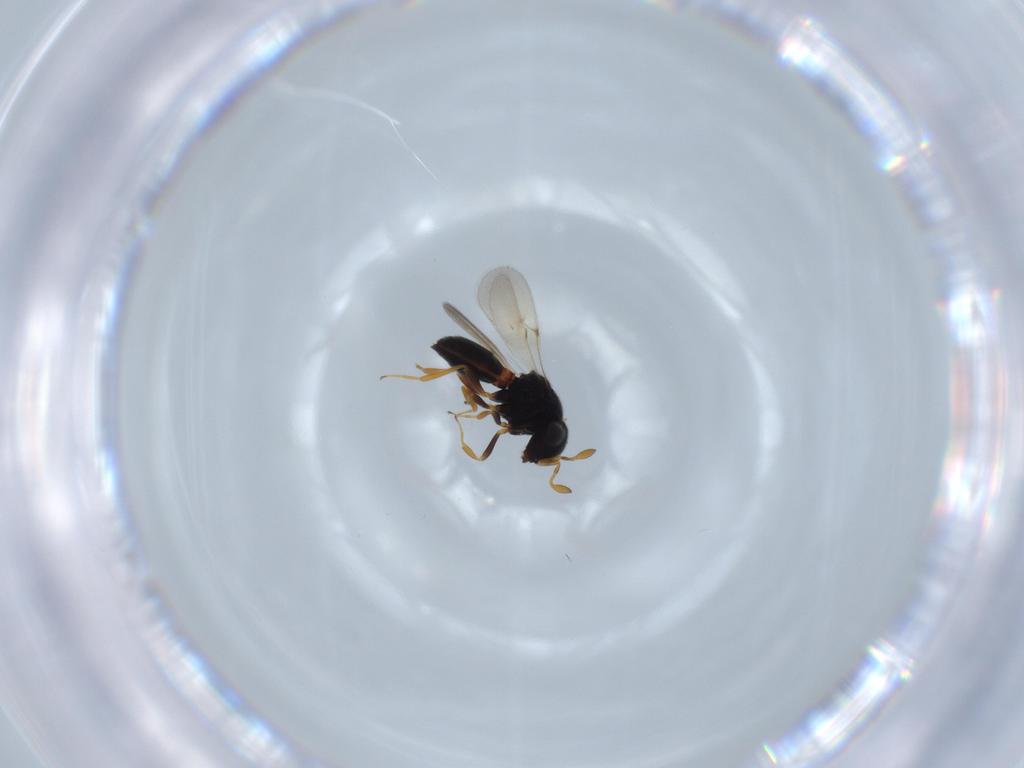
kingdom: Animalia
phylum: Arthropoda
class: Insecta
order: Hymenoptera
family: Scelionidae
